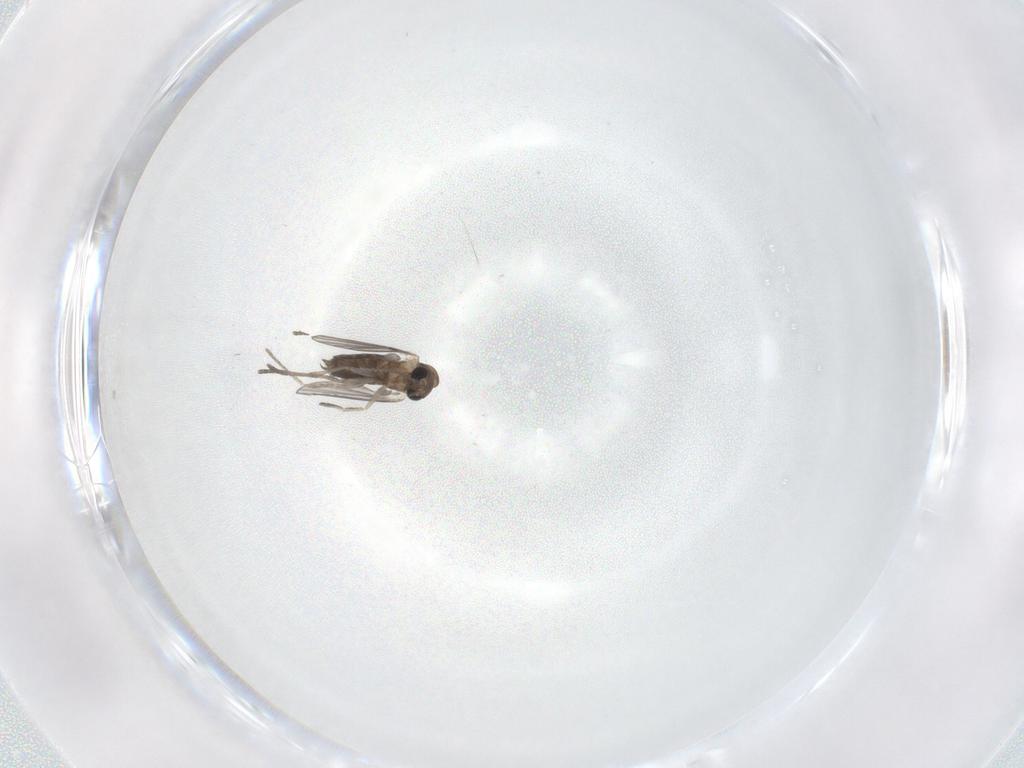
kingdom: Animalia
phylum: Arthropoda
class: Insecta
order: Diptera
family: Cecidomyiidae
